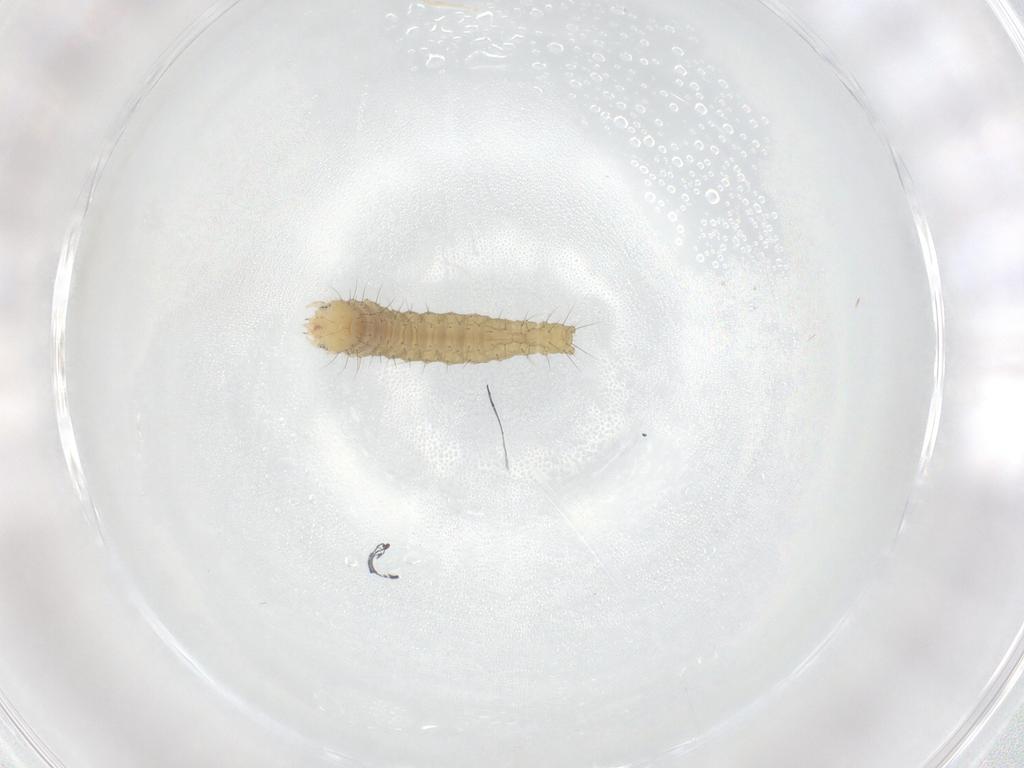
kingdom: Animalia
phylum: Arthropoda
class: Insecta
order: Lepidoptera
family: Gelechiidae
